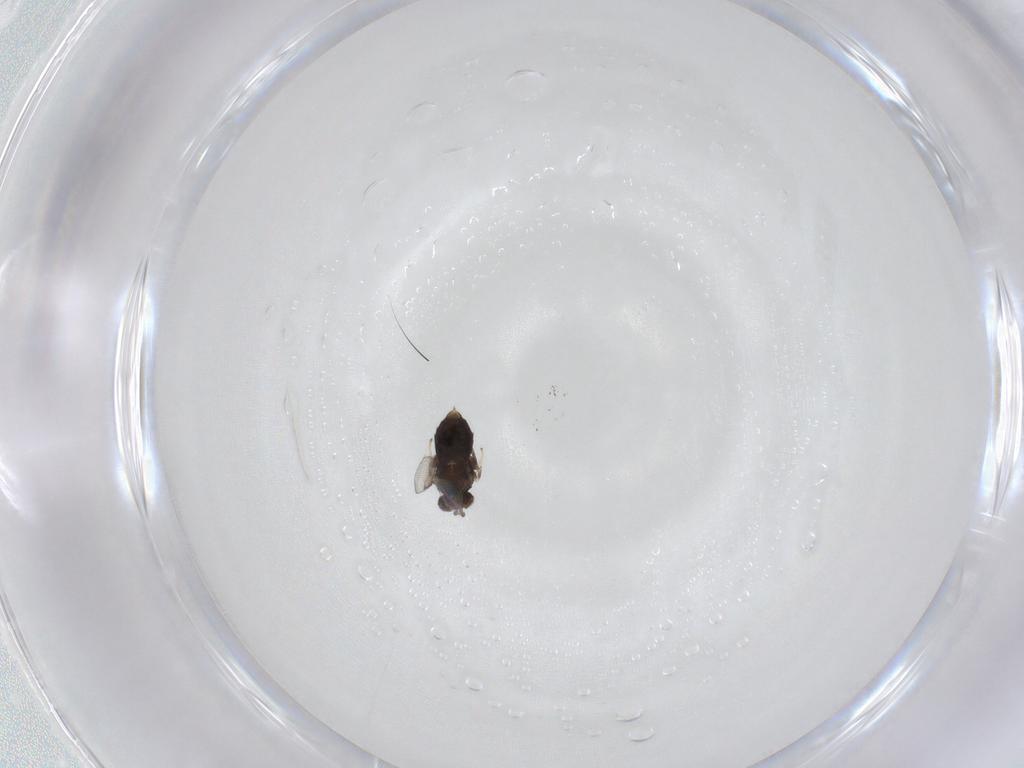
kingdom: Animalia
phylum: Arthropoda
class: Insecta
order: Hymenoptera
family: Aphelinidae
